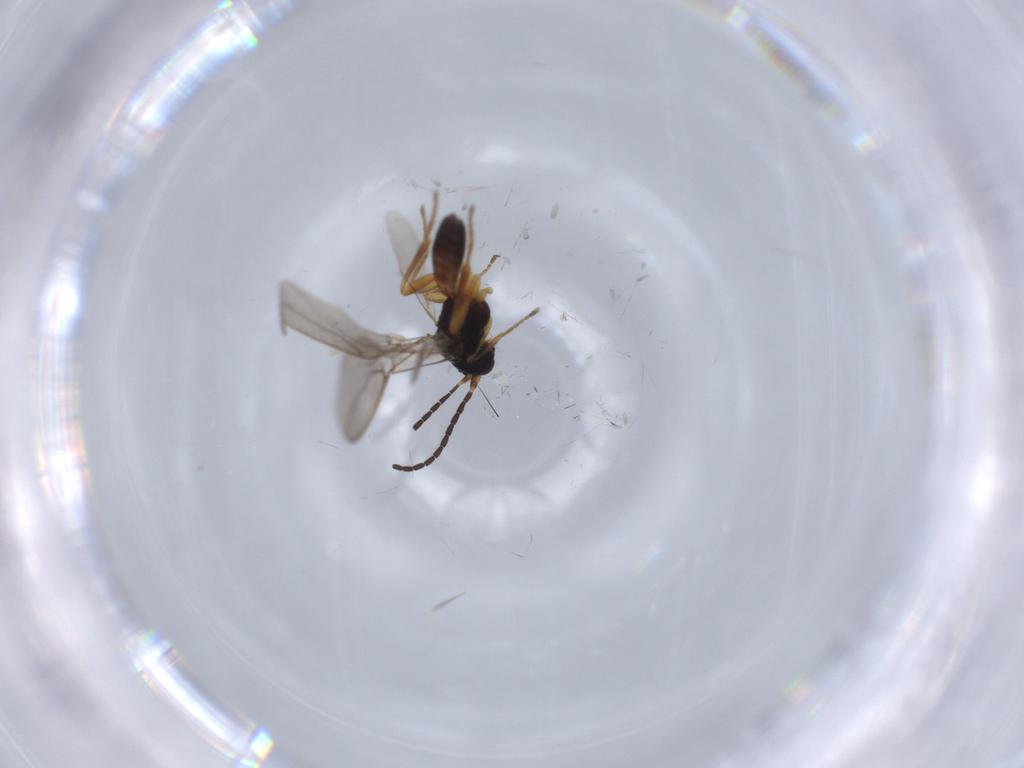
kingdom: Animalia
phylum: Arthropoda
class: Insecta
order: Hymenoptera
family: Braconidae
